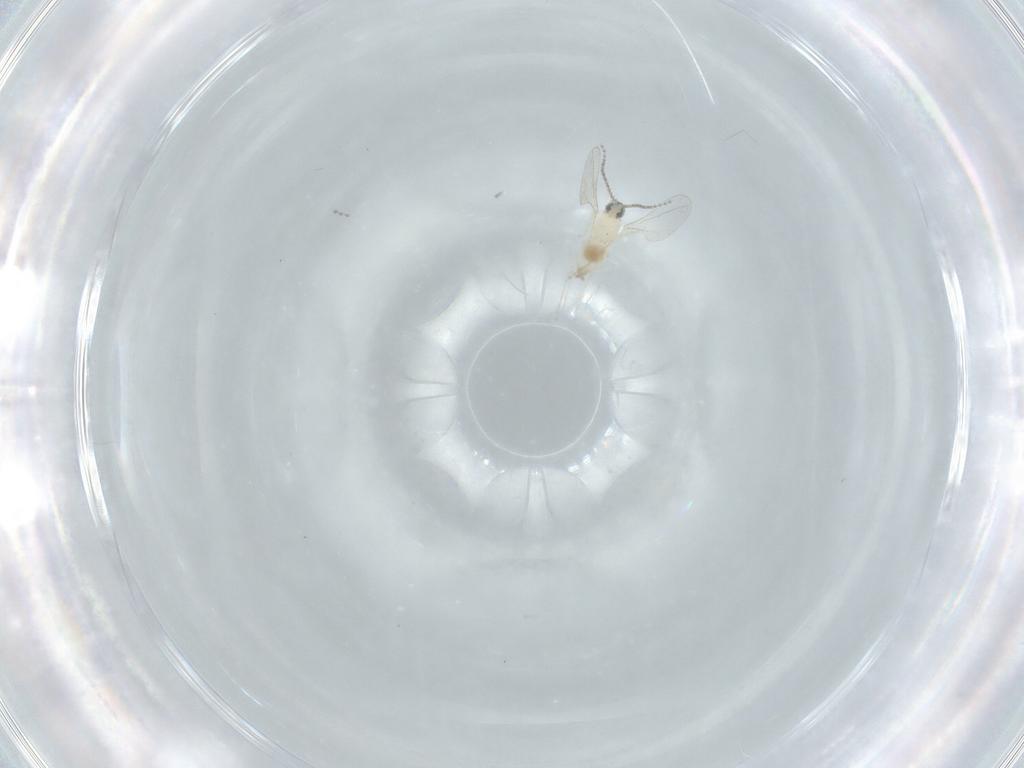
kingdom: Animalia
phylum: Arthropoda
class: Insecta
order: Diptera
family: Cecidomyiidae
